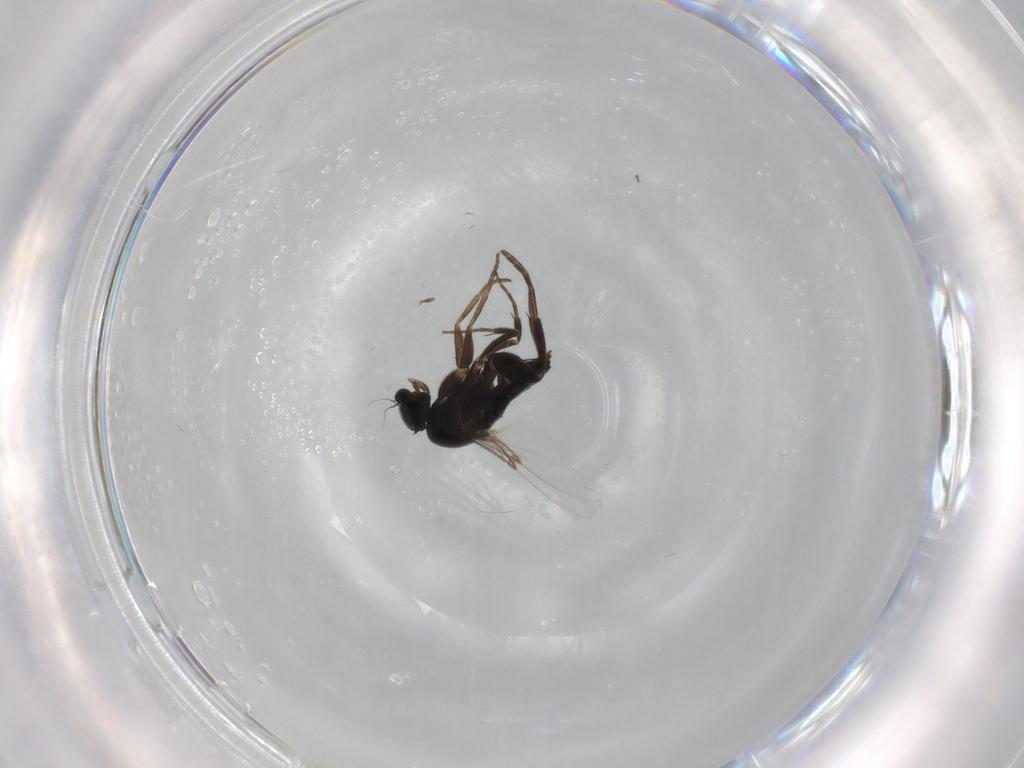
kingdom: Animalia
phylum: Arthropoda
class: Insecta
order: Diptera
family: Phoridae
